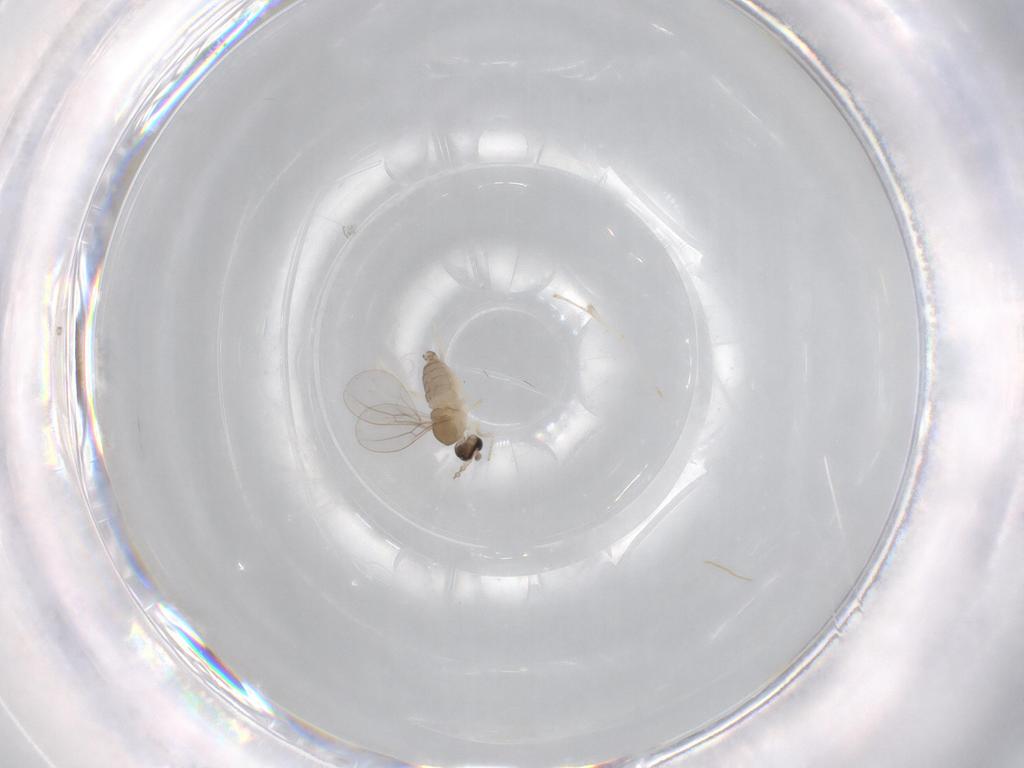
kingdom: Animalia
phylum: Arthropoda
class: Insecta
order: Diptera
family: Cecidomyiidae
